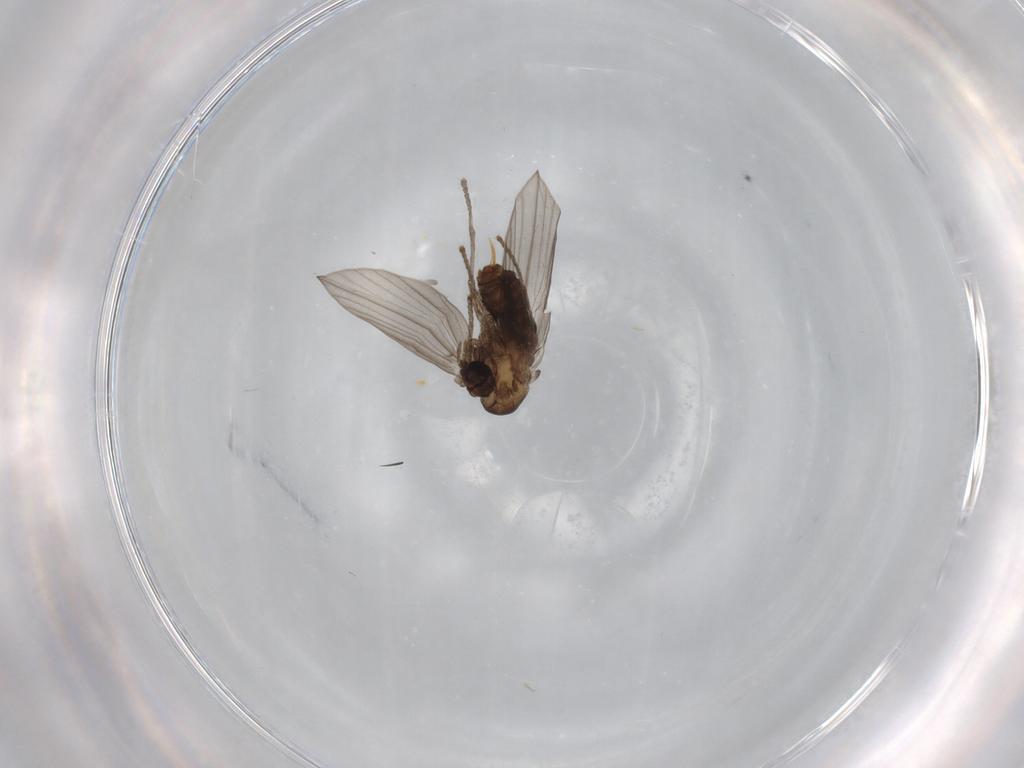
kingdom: Animalia
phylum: Arthropoda
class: Insecta
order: Diptera
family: Psychodidae
